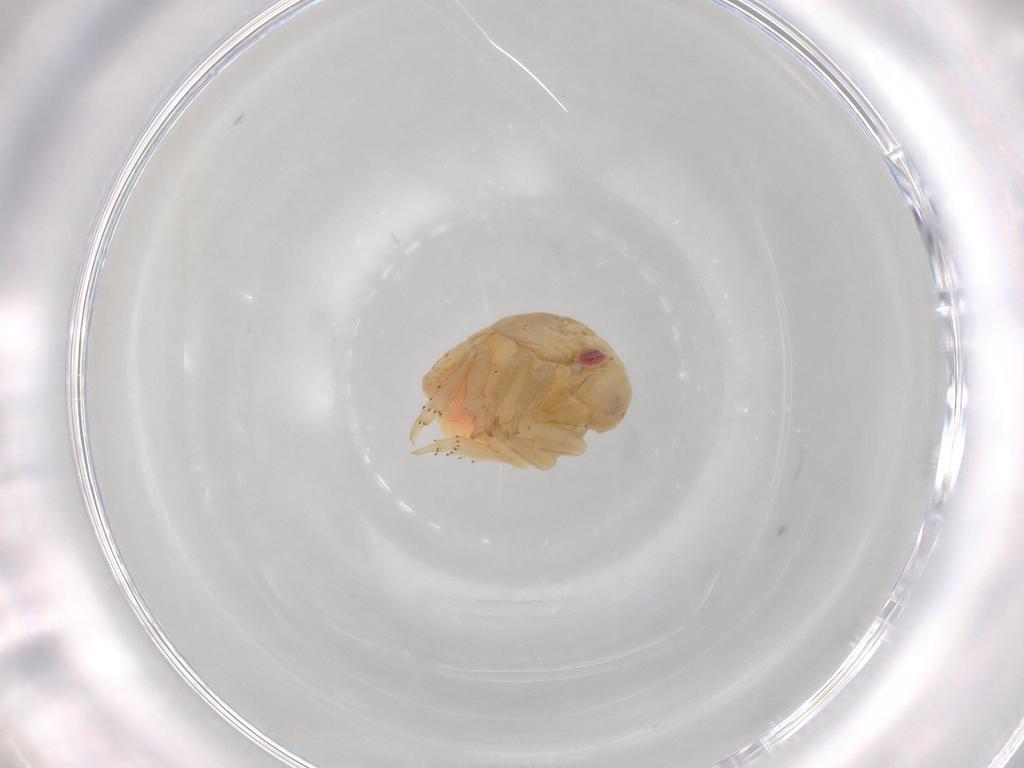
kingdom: Animalia
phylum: Arthropoda
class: Insecta
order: Hemiptera
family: Flatidae
